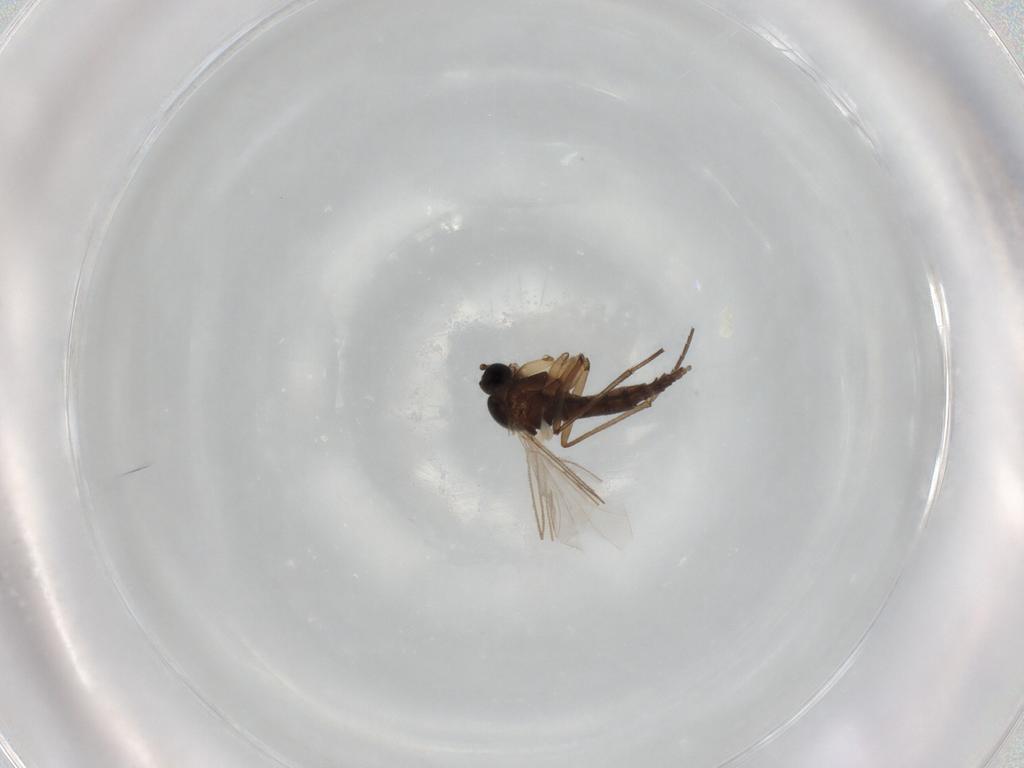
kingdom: Animalia
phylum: Arthropoda
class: Insecta
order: Diptera
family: Sciaridae
